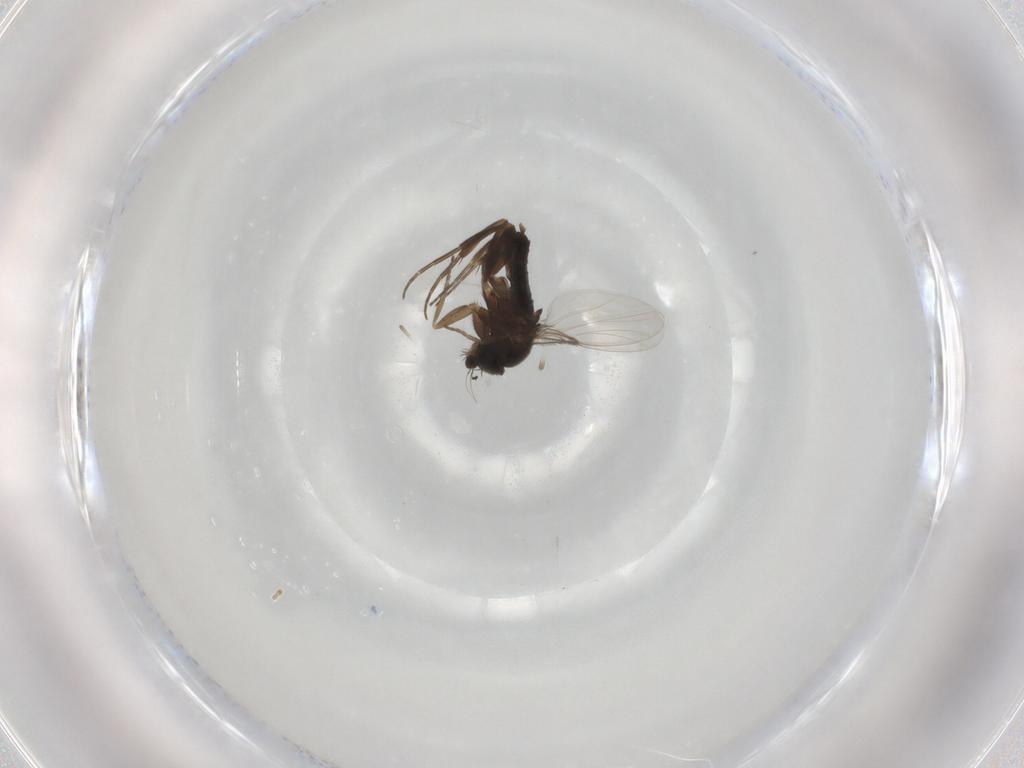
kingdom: Animalia
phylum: Arthropoda
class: Insecta
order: Diptera
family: Phoridae
